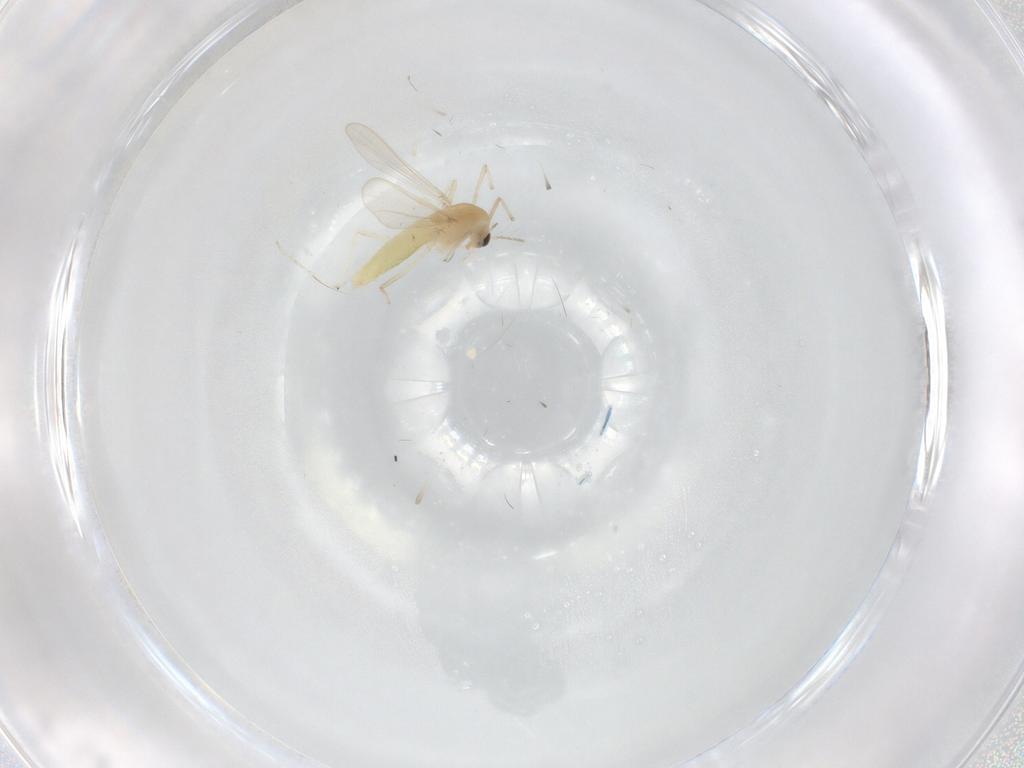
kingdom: Animalia
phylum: Arthropoda
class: Insecta
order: Diptera
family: Chironomidae
